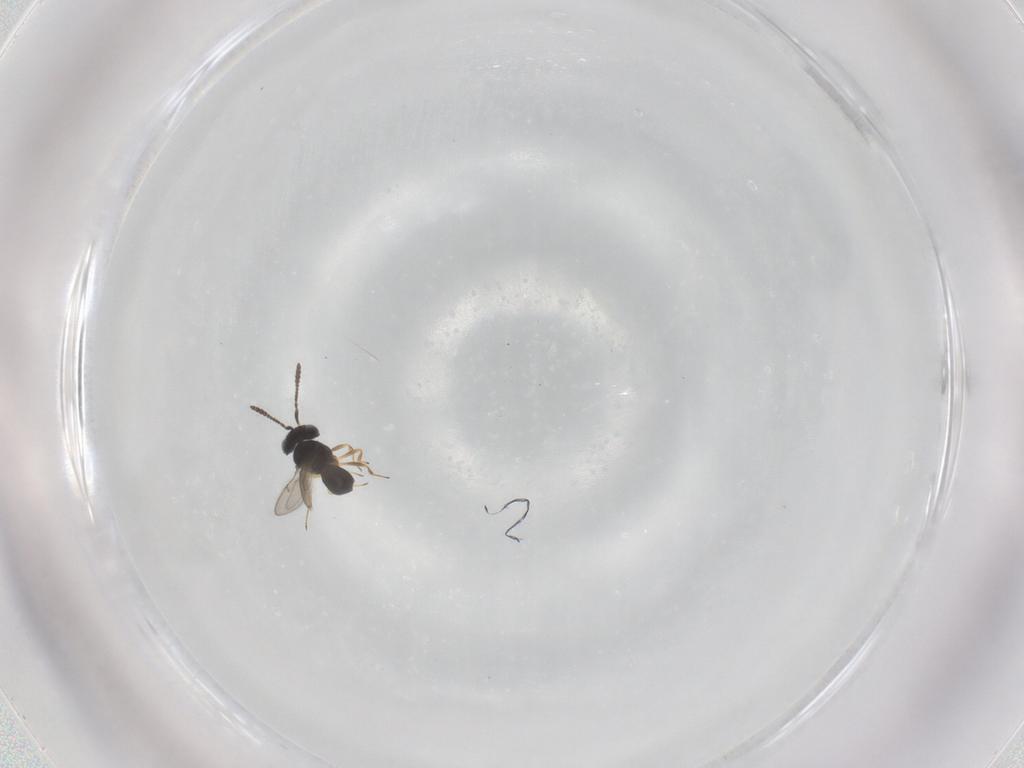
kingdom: Animalia
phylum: Arthropoda
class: Insecta
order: Hymenoptera
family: Scelionidae
